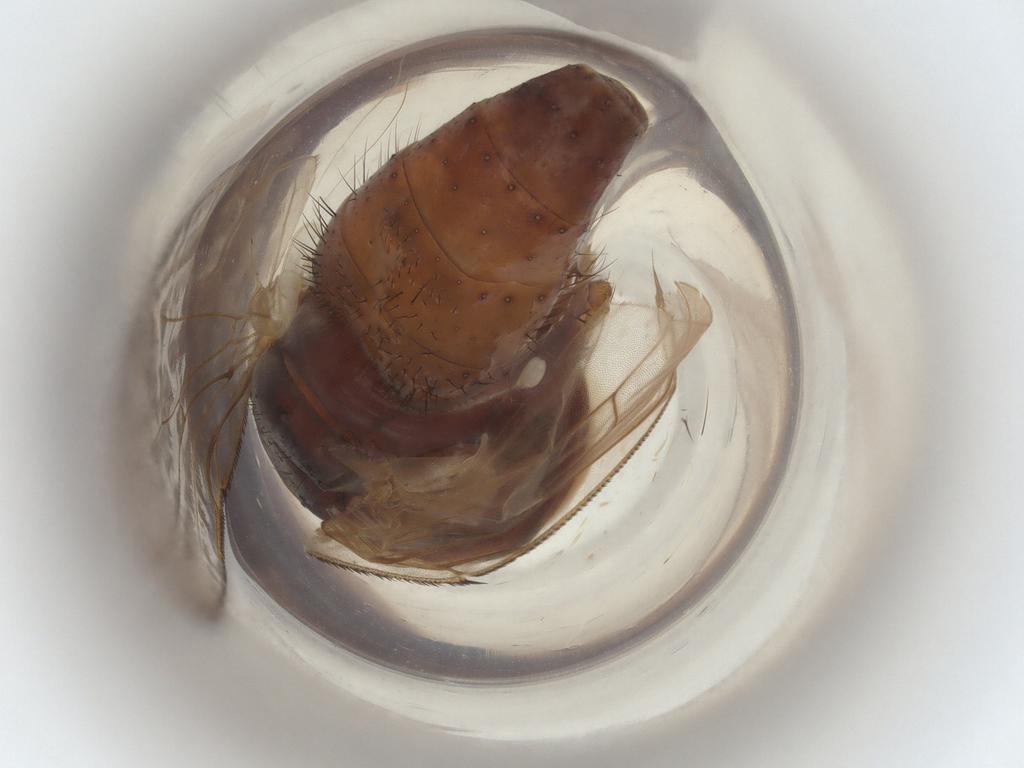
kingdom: Animalia
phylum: Arthropoda
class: Insecta
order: Diptera
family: Muscidae
